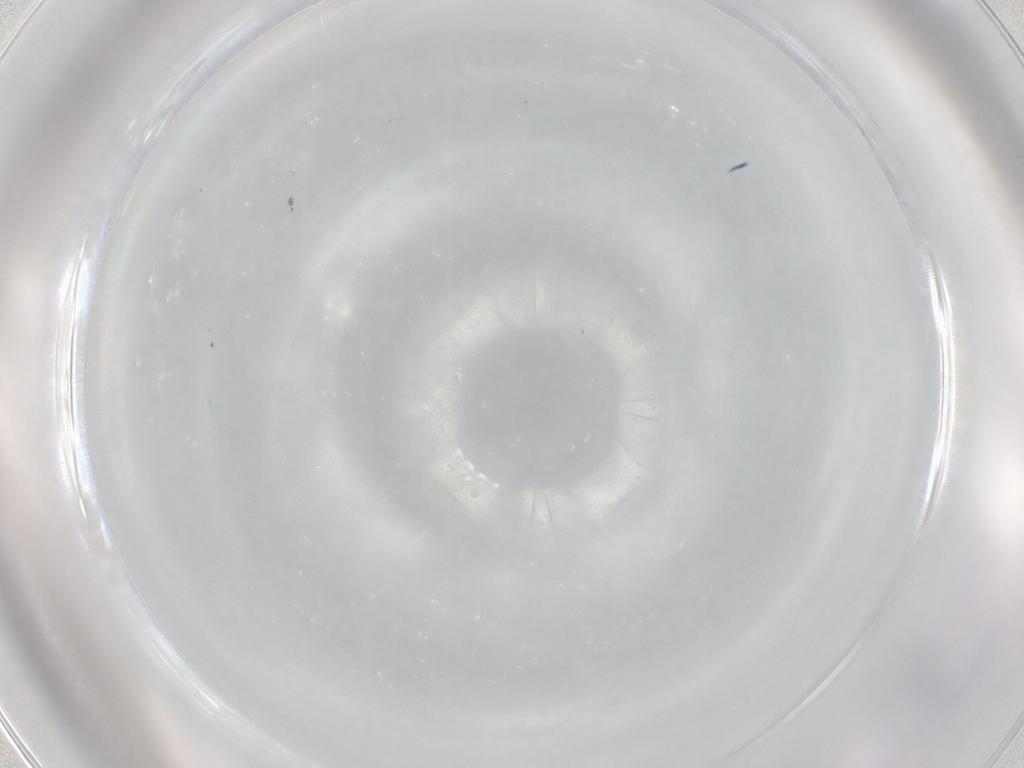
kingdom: Animalia
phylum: Arthropoda
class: Insecta
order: Diptera
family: Sciaridae
